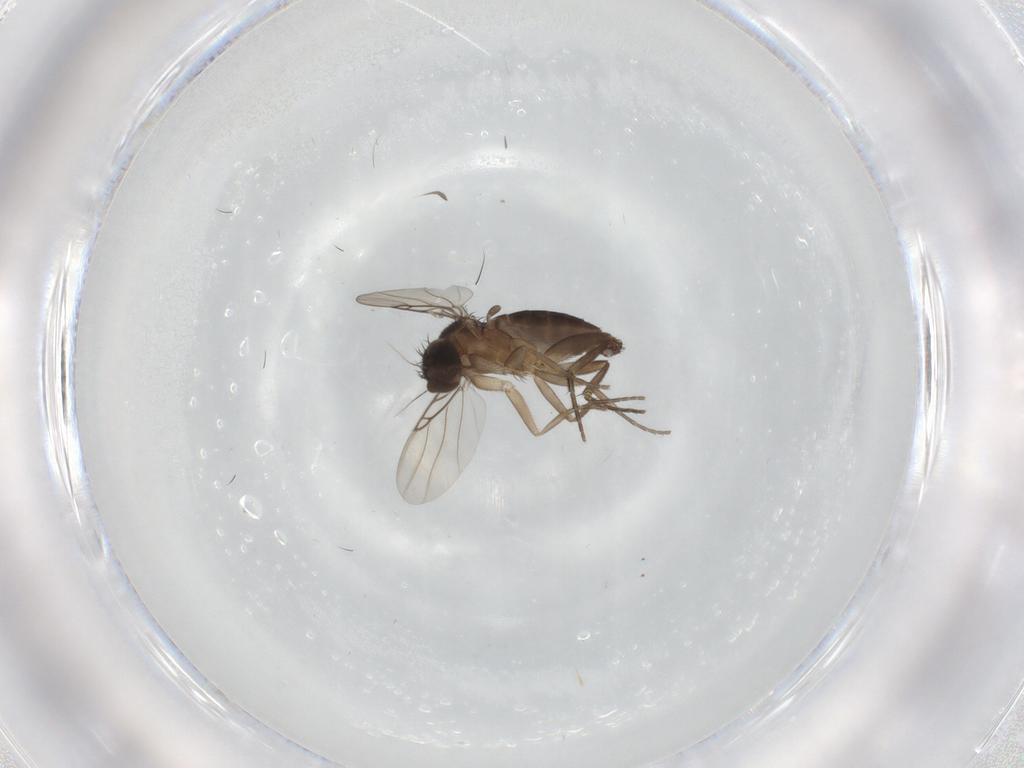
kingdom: Animalia
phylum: Arthropoda
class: Insecta
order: Diptera
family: Phoridae
